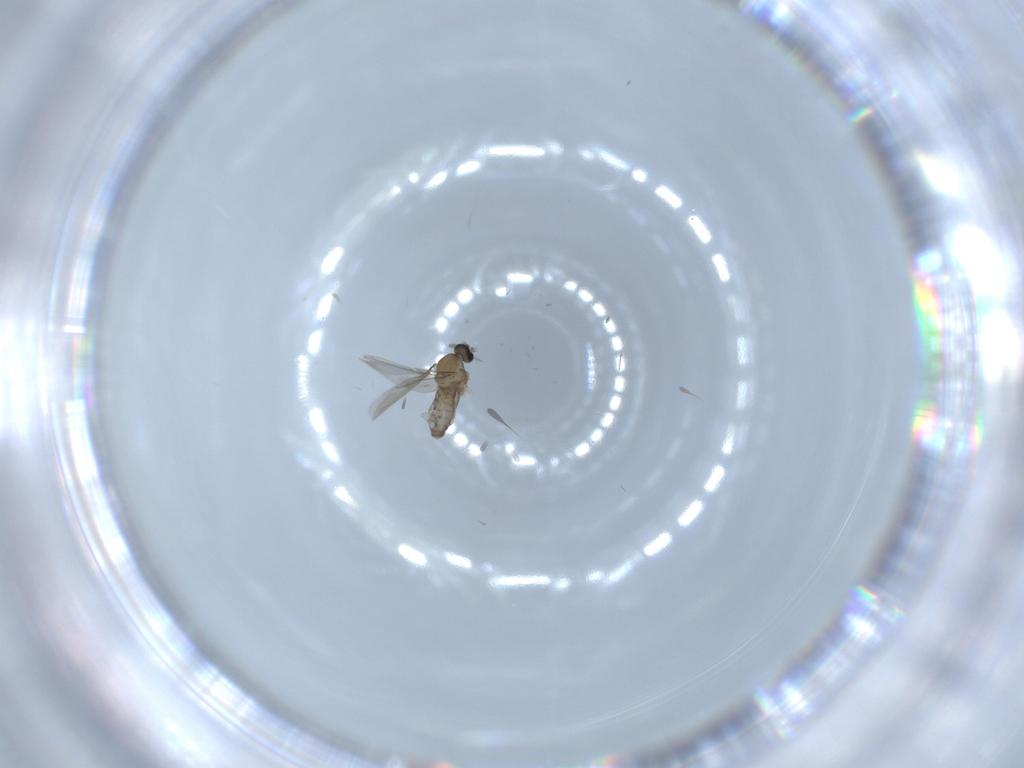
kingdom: Animalia
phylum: Arthropoda
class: Insecta
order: Diptera
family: Cecidomyiidae
